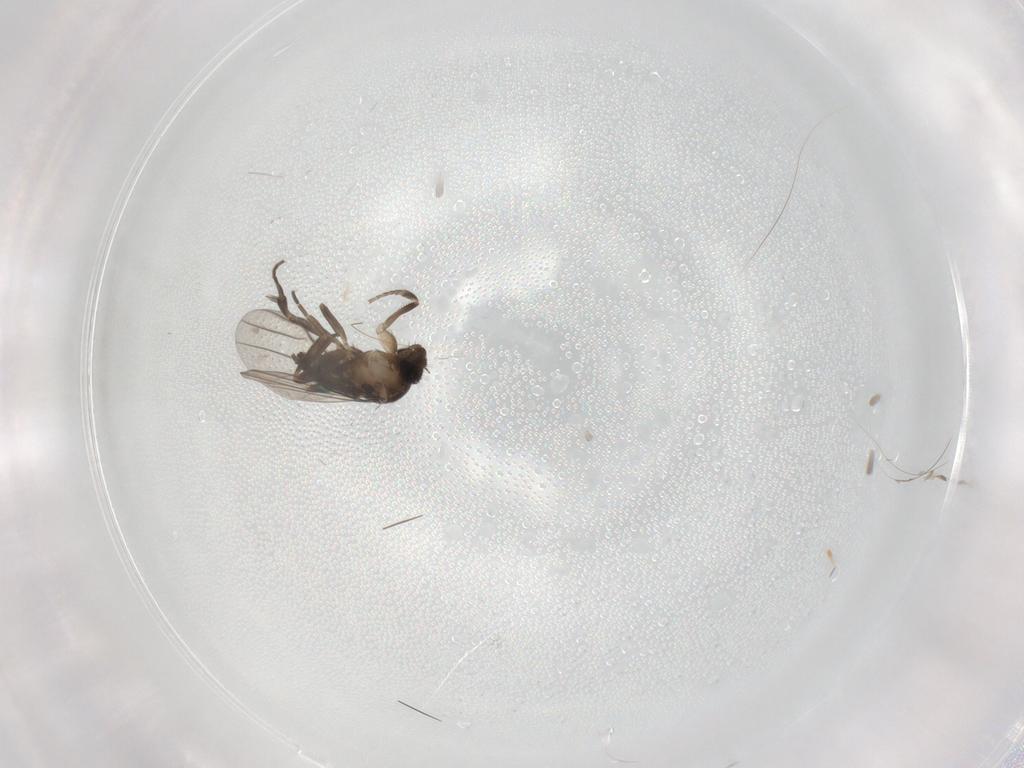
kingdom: Animalia
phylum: Arthropoda
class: Insecta
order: Diptera
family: Phoridae
